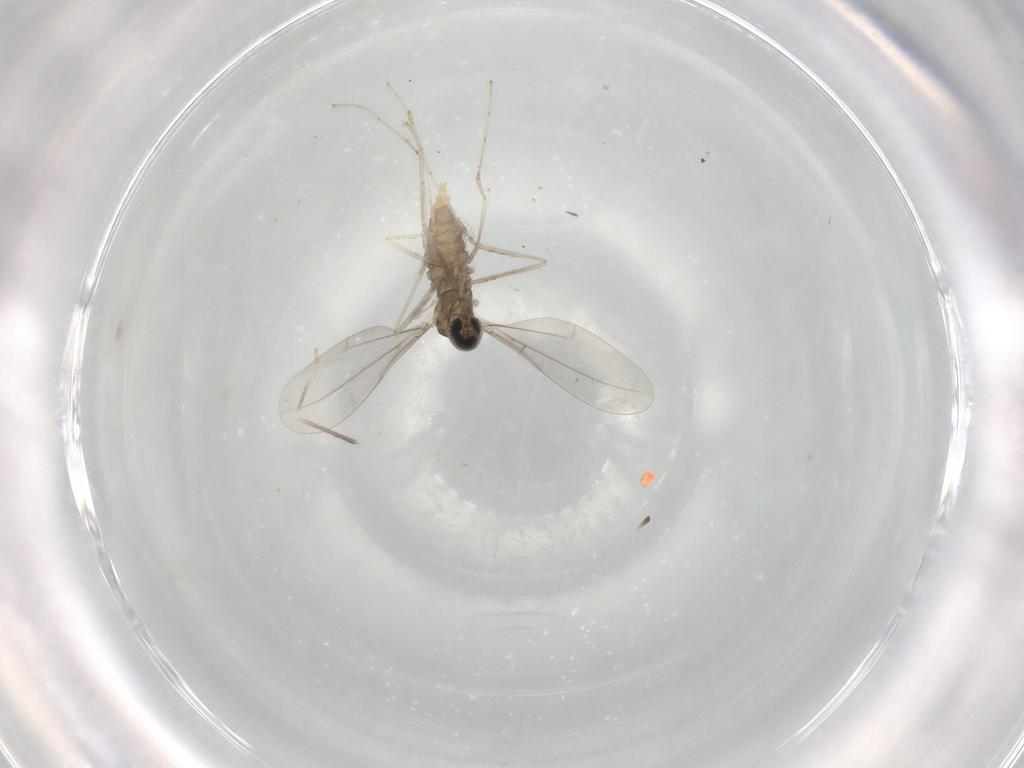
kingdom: Animalia
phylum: Arthropoda
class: Insecta
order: Diptera
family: Cecidomyiidae
